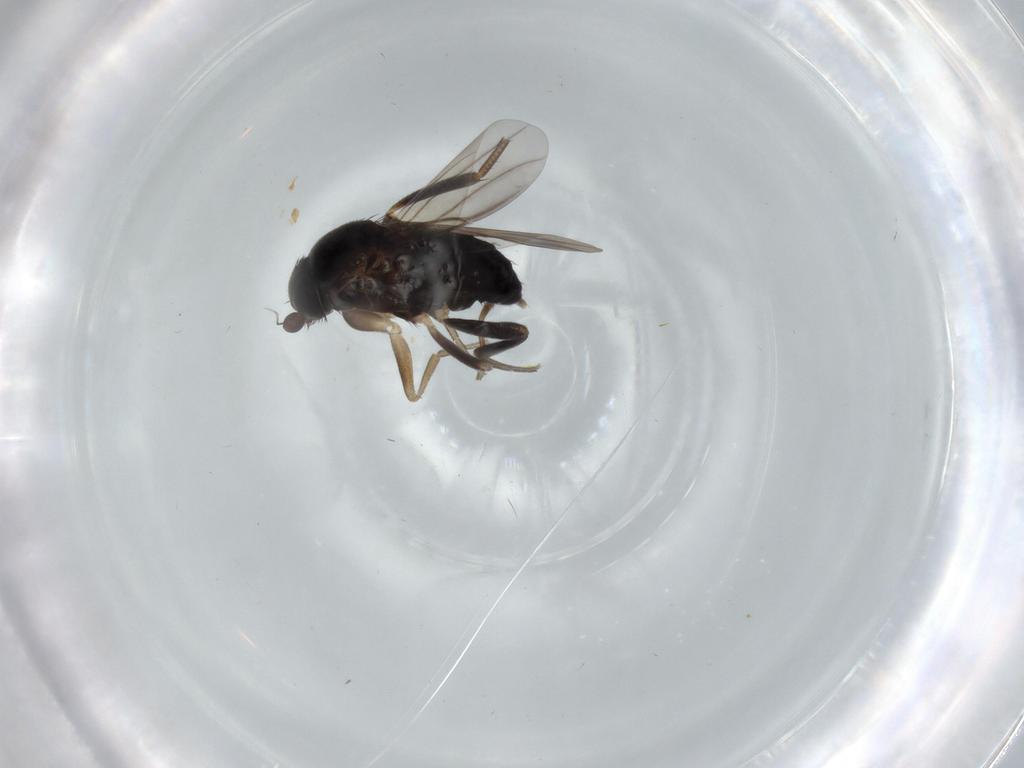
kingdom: Animalia
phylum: Arthropoda
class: Insecta
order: Diptera
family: Phoridae
